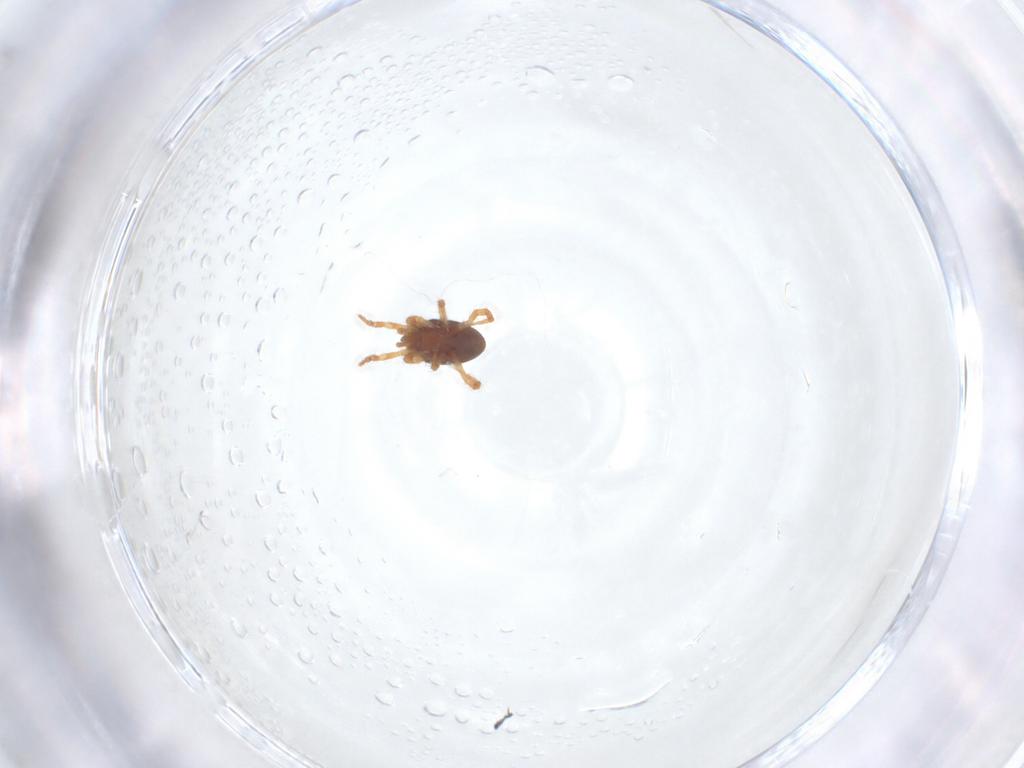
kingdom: Animalia
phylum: Arthropoda
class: Arachnida
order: Mesostigmata
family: Parasitidae
